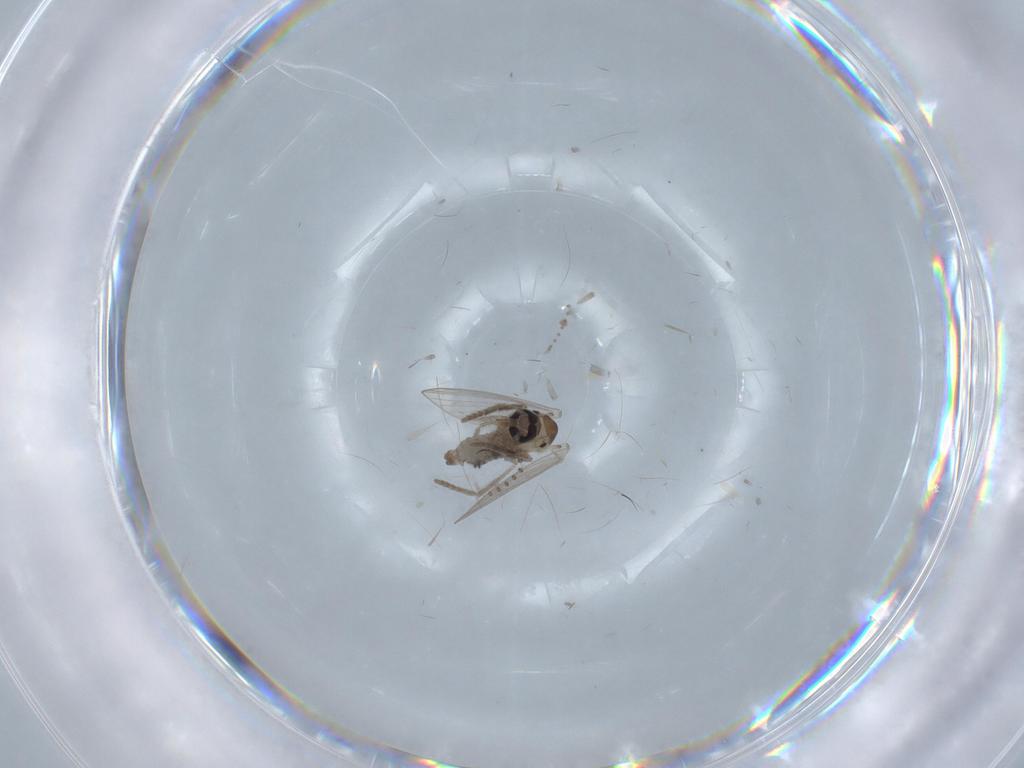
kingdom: Animalia
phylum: Arthropoda
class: Insecta
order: Diptera
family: Psychodidae
